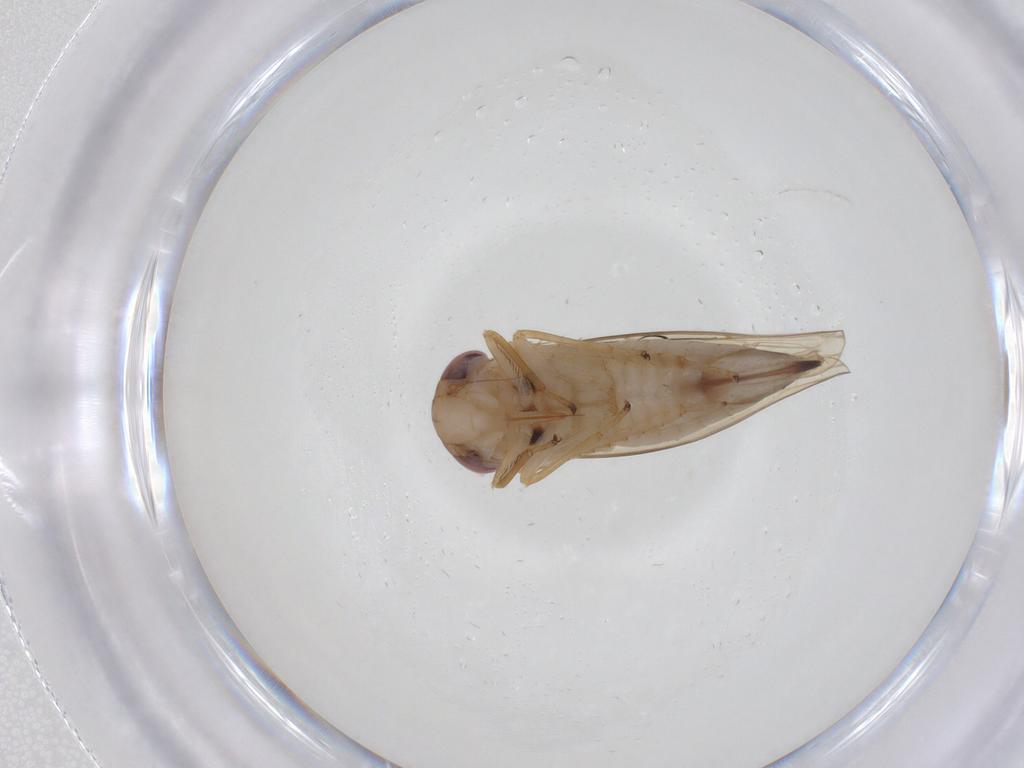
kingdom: Animalia
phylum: Arthropoda
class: Insecta
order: Hemiptera
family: Cicadellidae
